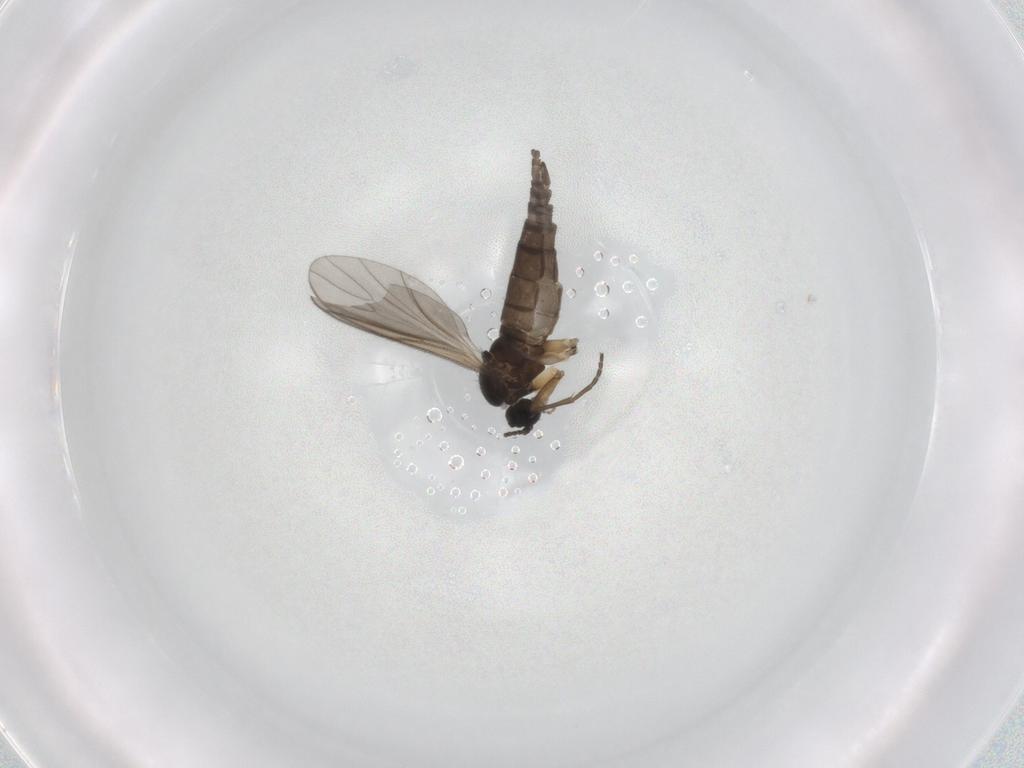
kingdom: Animalia
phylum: Arthropoda
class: Insecta
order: Diptera
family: Sciaridae
